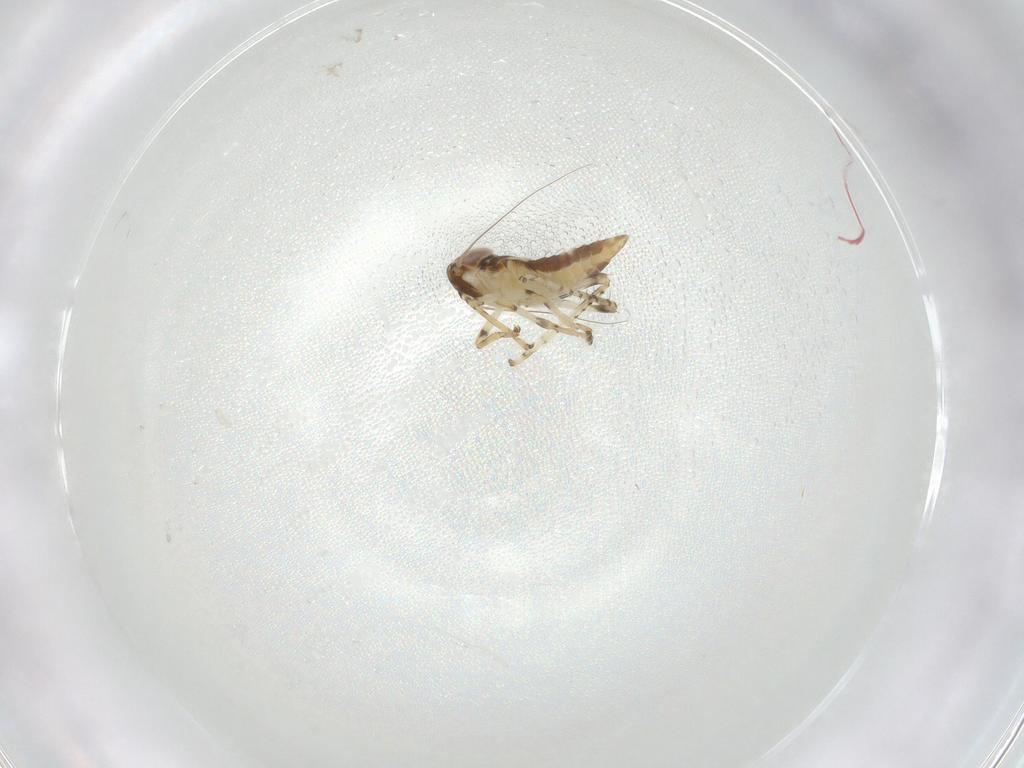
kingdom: Animalia
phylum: Arthropoda
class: Insecta
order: Hemiptera
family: Cicadellidae
